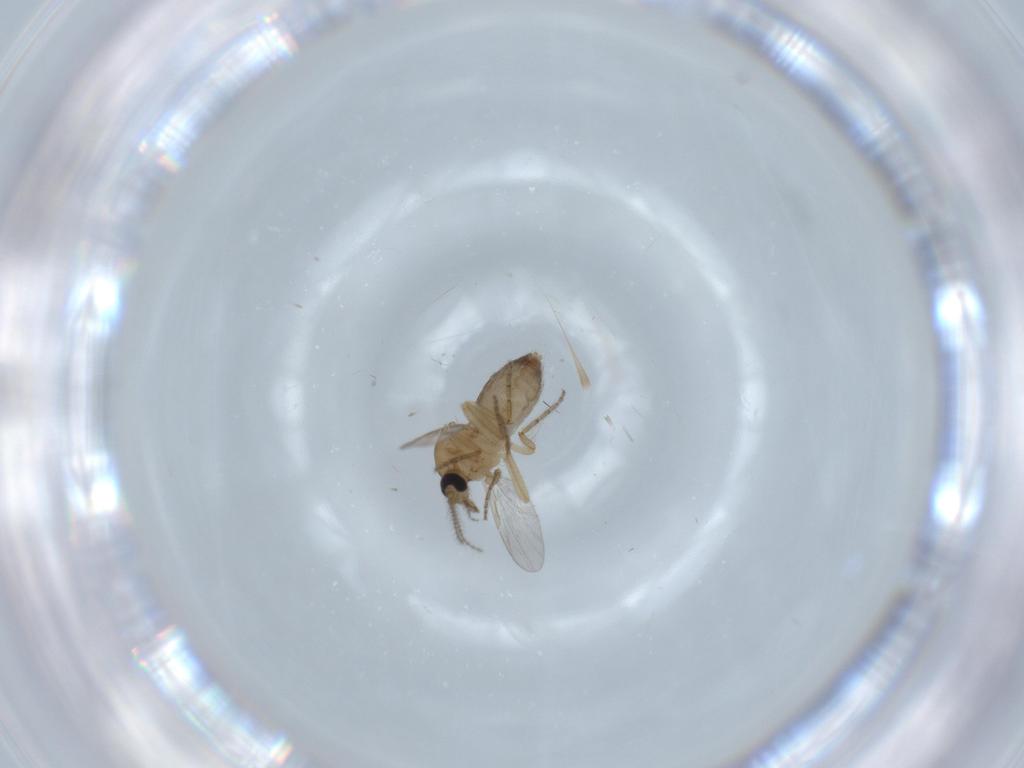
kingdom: Animalia
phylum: Arthropoda
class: Insecta
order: Diptera
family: Ceratopogonidae
